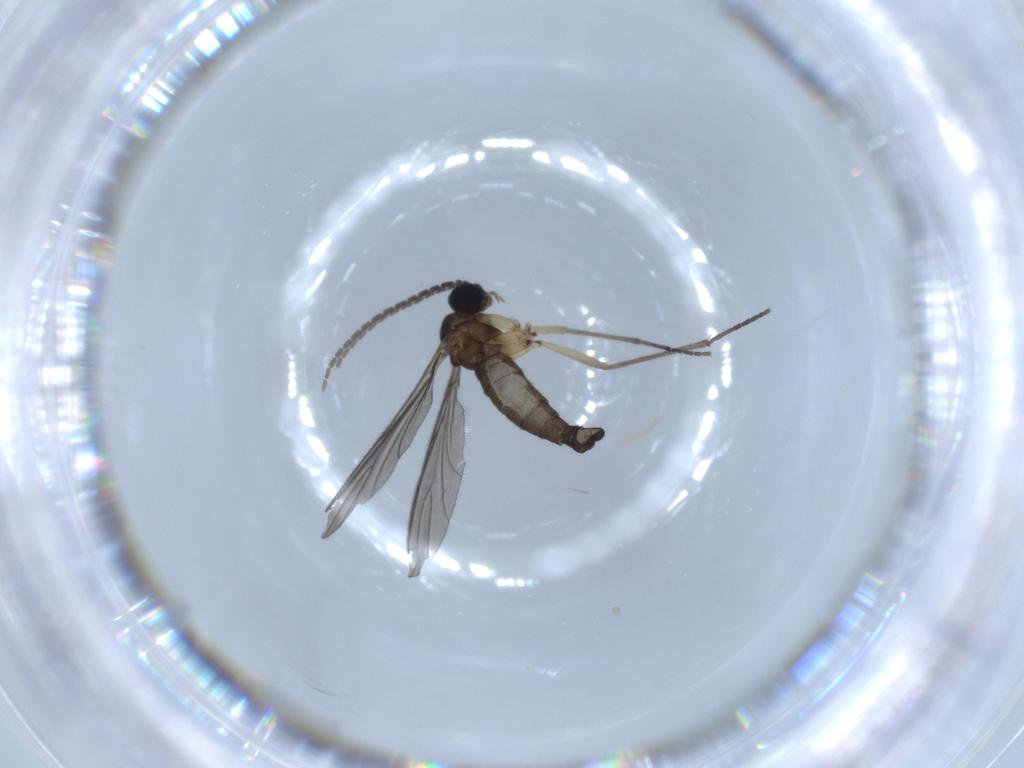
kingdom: Animalia
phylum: Arthropoda
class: Insecta
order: Diptera
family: Sciaridae
